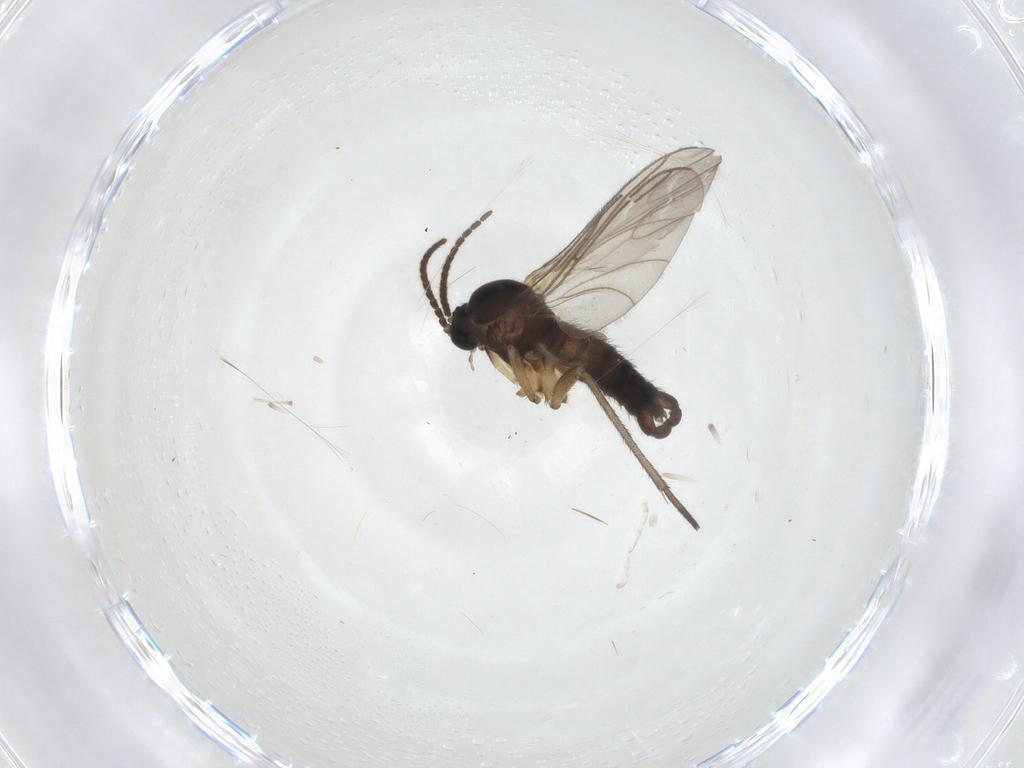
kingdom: Animalia
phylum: Arthropoda
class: Insecta
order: Diptera
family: Sciaridae
